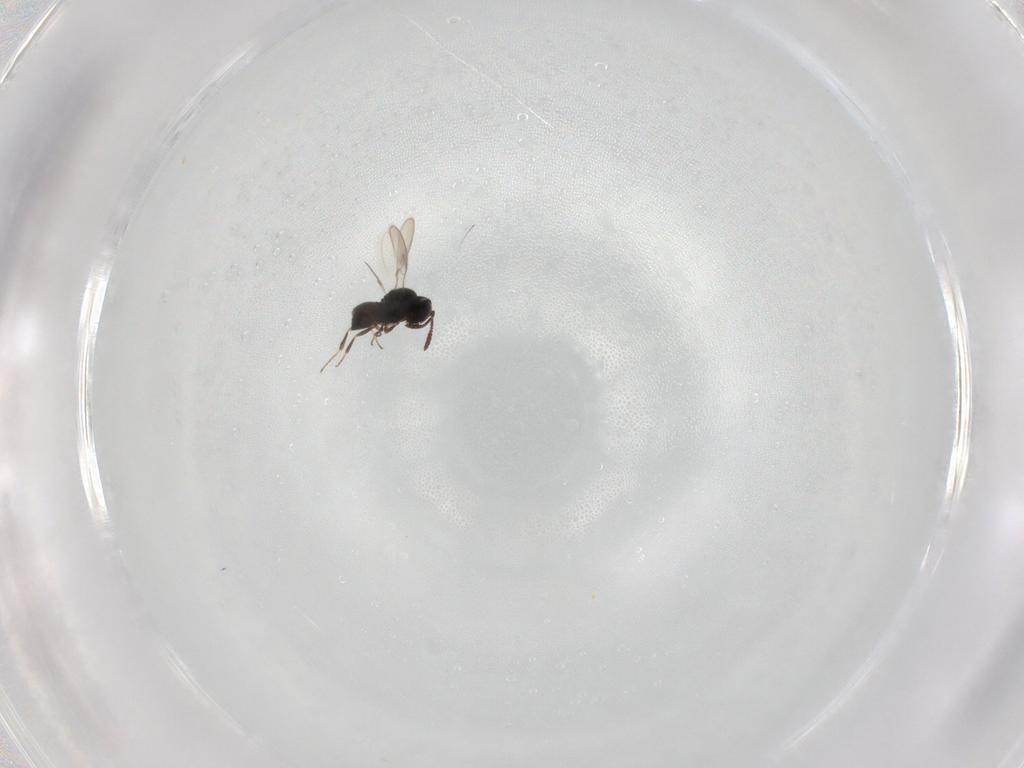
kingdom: Animalia
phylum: Arthropoda
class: Insecta
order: Hymenoptera
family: Scelionidae
